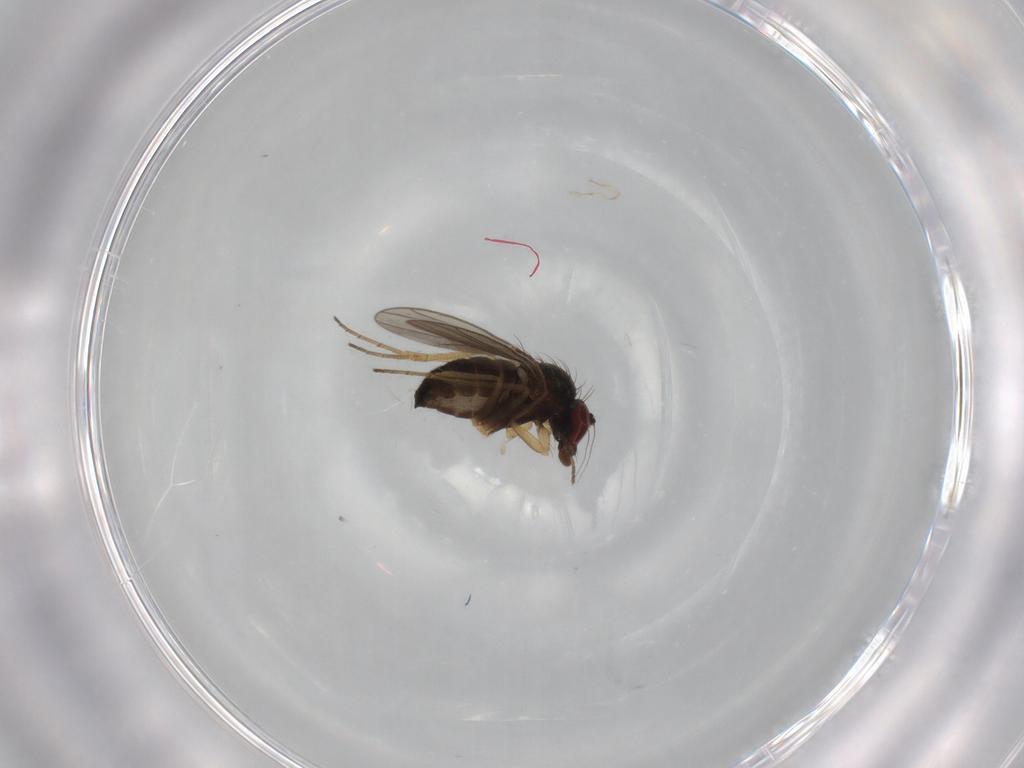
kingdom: Animalia
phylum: Arthropoda
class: Insecta
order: Diptera
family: Dolichopodidae
